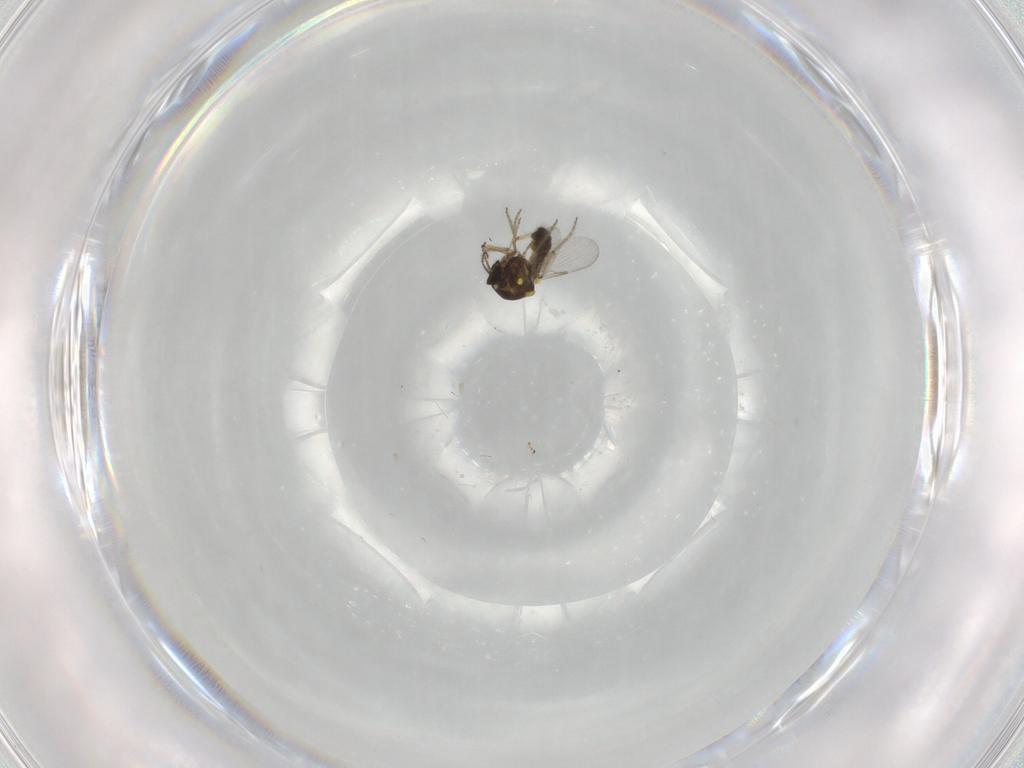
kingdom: Animalia
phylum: Arthropoda
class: Insecta
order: Diptera
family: Ceratopogonidae
